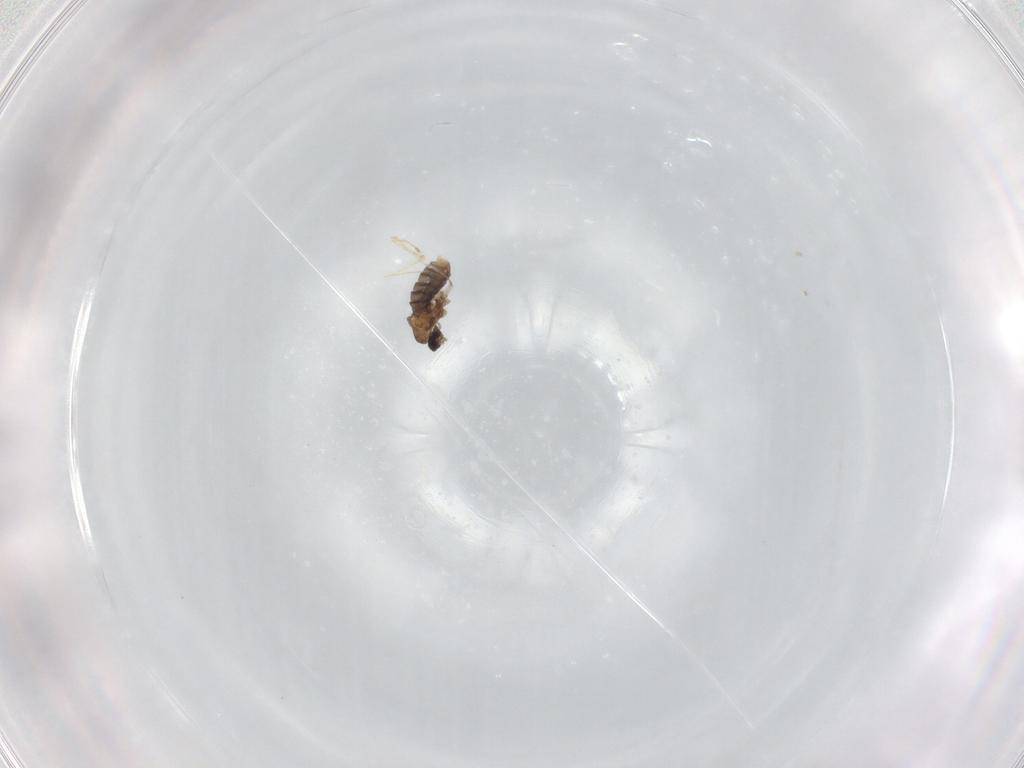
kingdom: Animalia
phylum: Arthropoda
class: Insecta
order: Diptera
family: Cecidomyiidae
